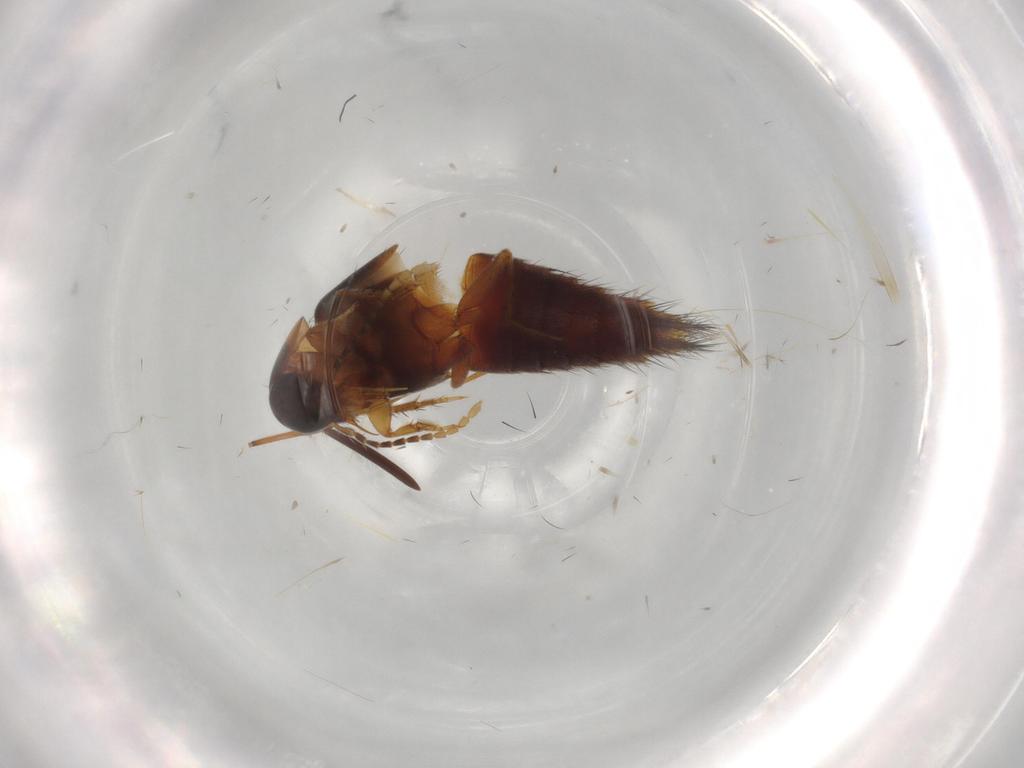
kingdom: Animalia
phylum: Arthropoda
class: Insecta
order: Coleoptera
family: Staphylinidae
